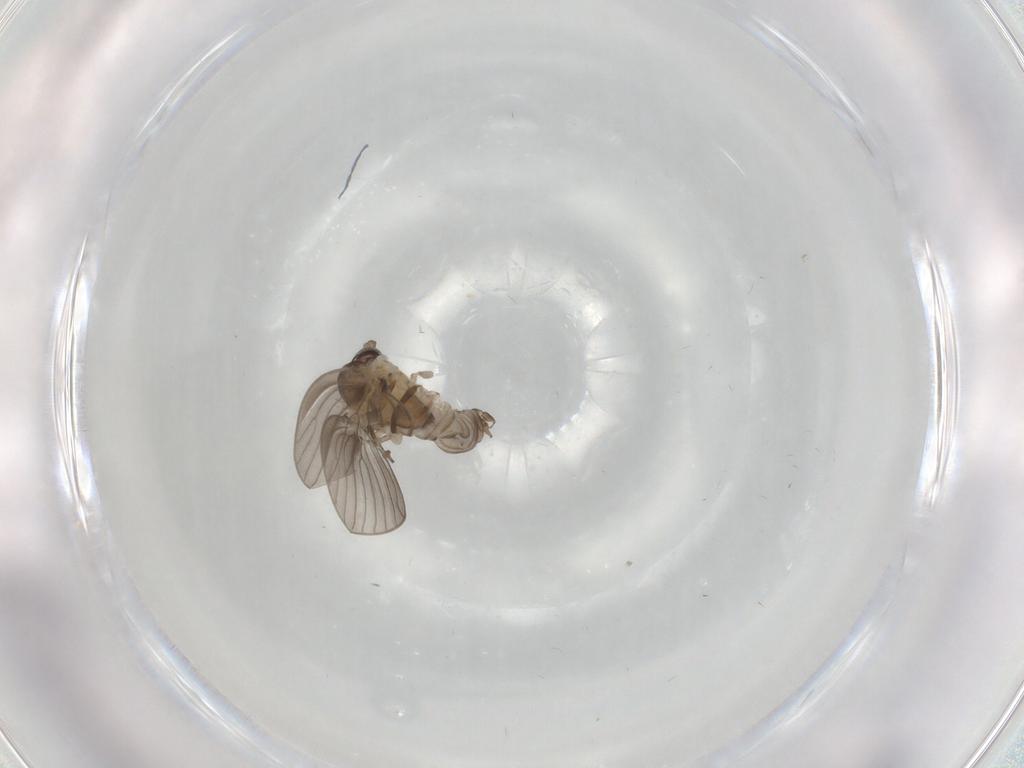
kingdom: Animalia
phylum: Arthropoda
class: Insecta
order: Diptera
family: Psychodidae
